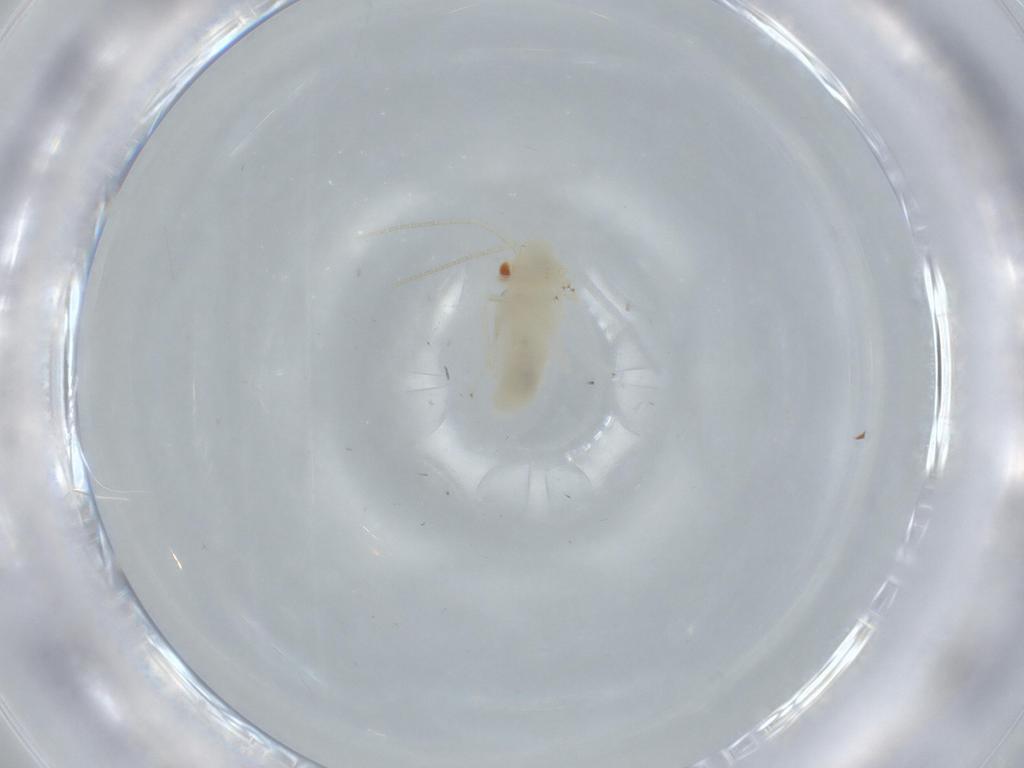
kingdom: Animalia
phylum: Arthropoda
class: Insecta
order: Psocodea
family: Caeciliusidae
